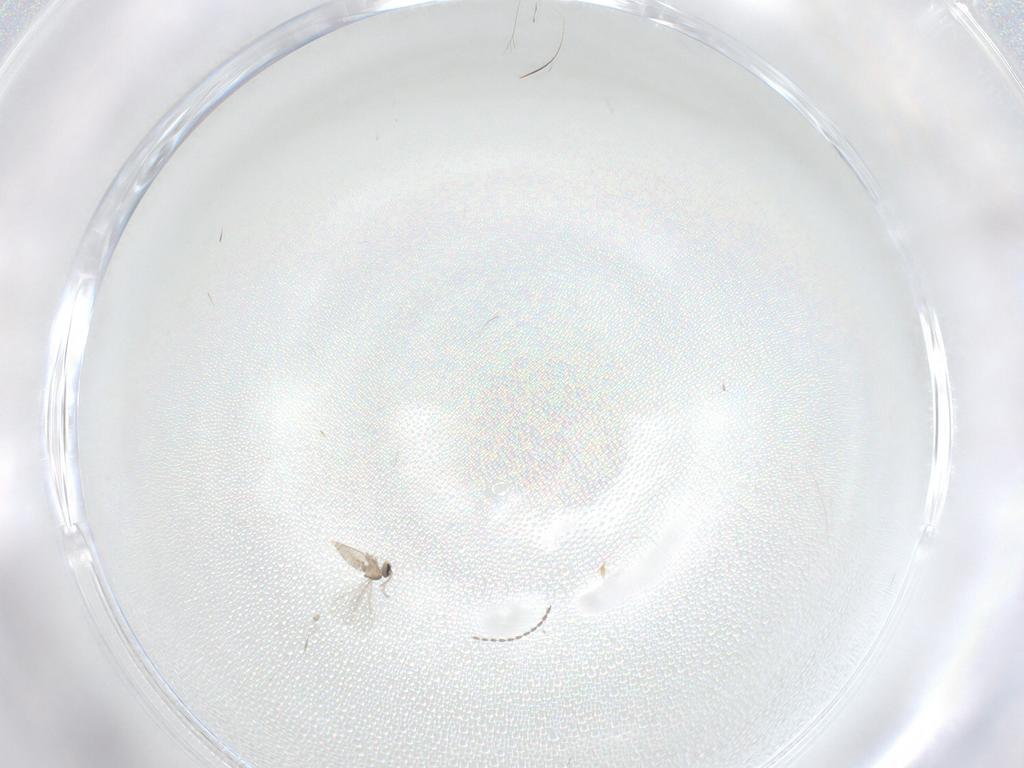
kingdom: Animalia
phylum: Arthropoda
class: Insecta
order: Diptera
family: Cecidomyiidae
